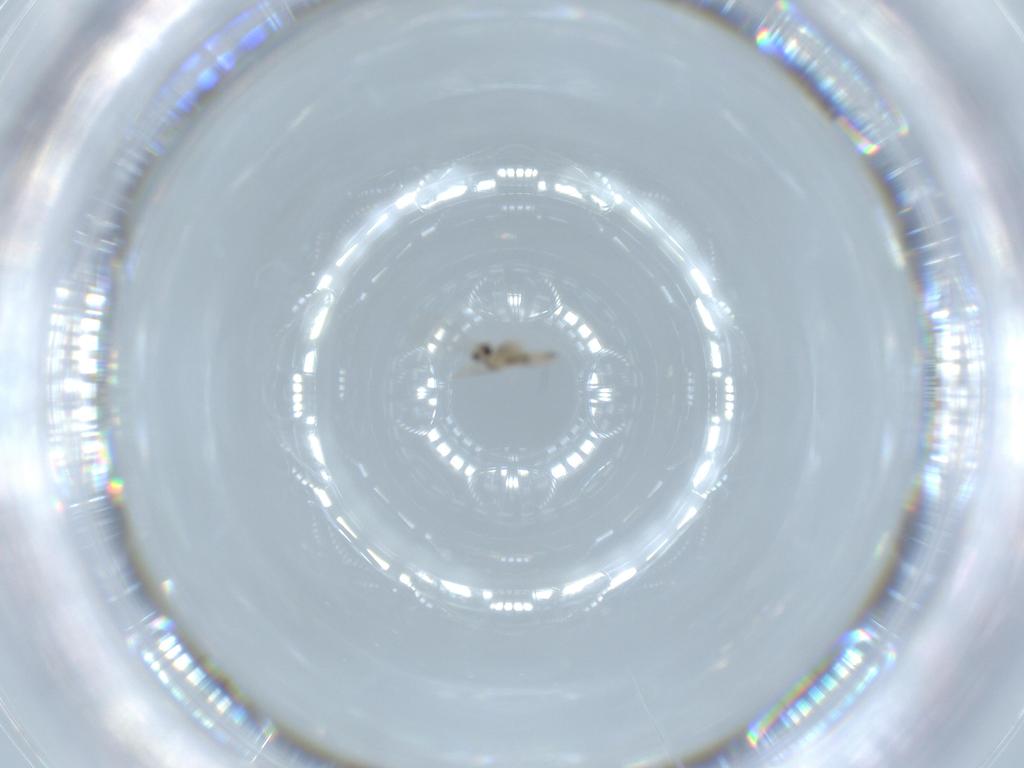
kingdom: Animalia
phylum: Arthropoda
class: Insecta
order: Diptera
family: Cecidomyiidae
